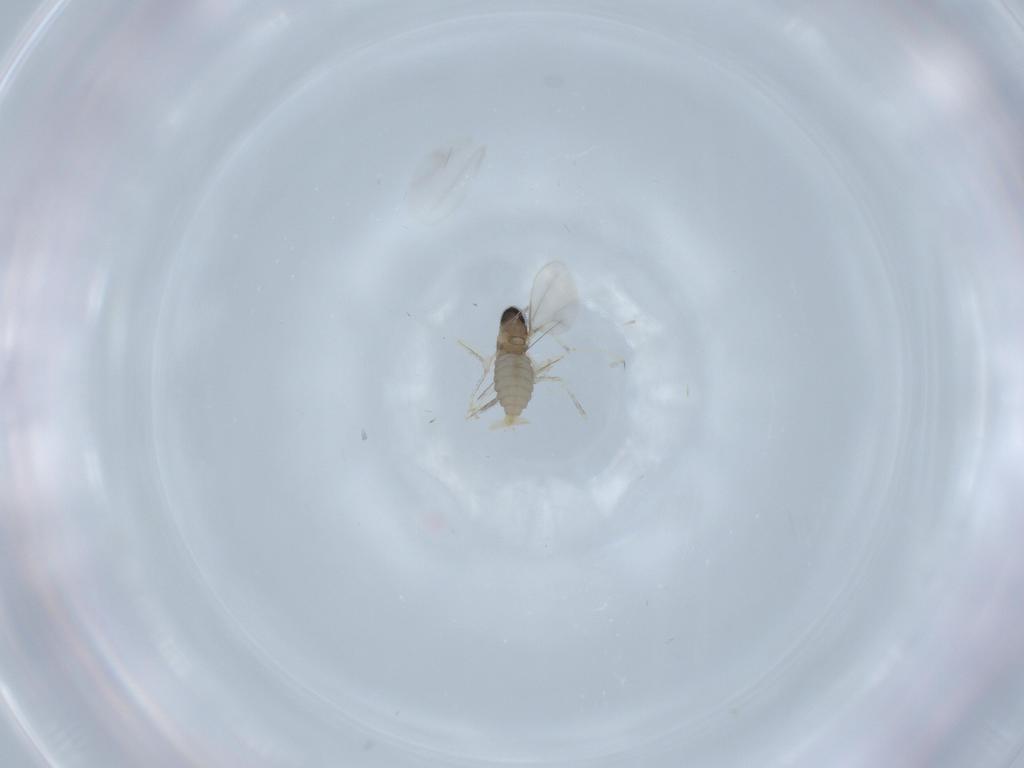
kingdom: Animalia
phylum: Arthropoda
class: Insecta
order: Diptera
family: Cecidomyiidae
